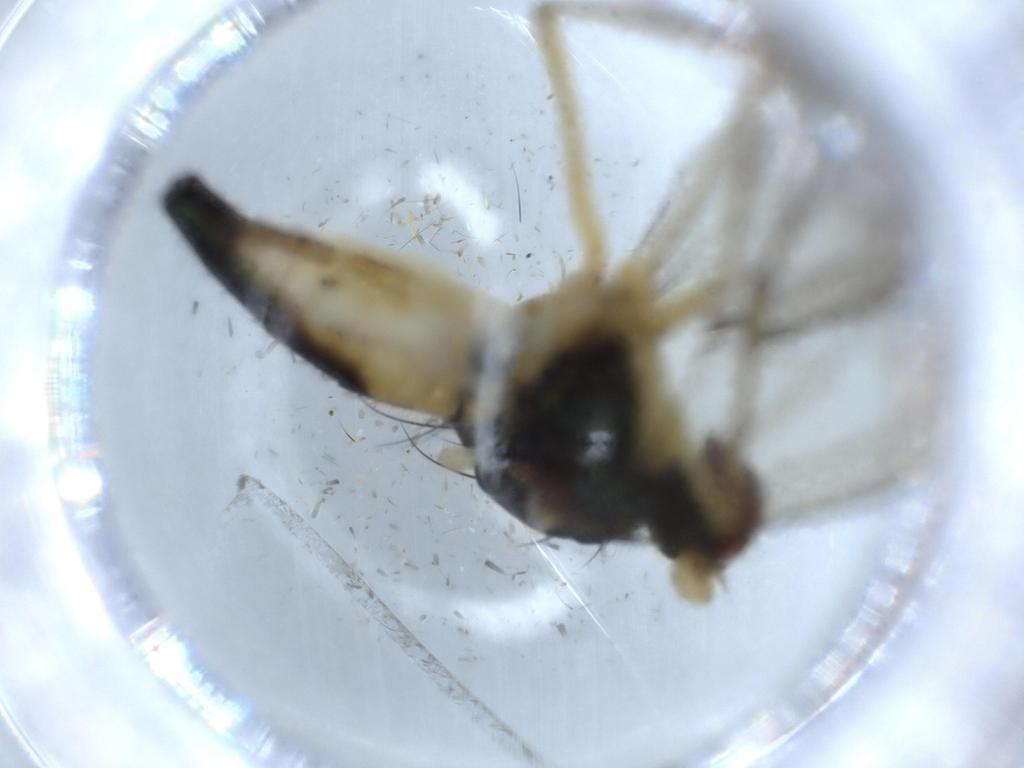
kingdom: Animalia
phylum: Arthropoda
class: Insecta
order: Diptera
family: Dolichopodidae
